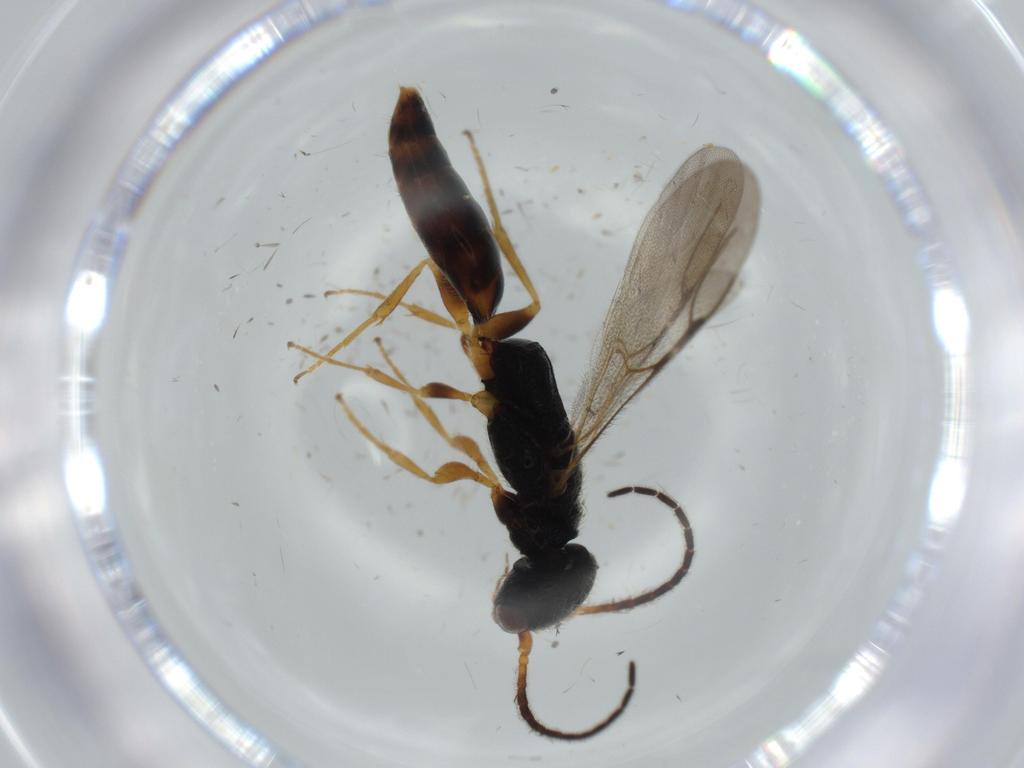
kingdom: Animalia
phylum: Arthropoda
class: Insecta
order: Hymenoptera
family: Bethylidae
